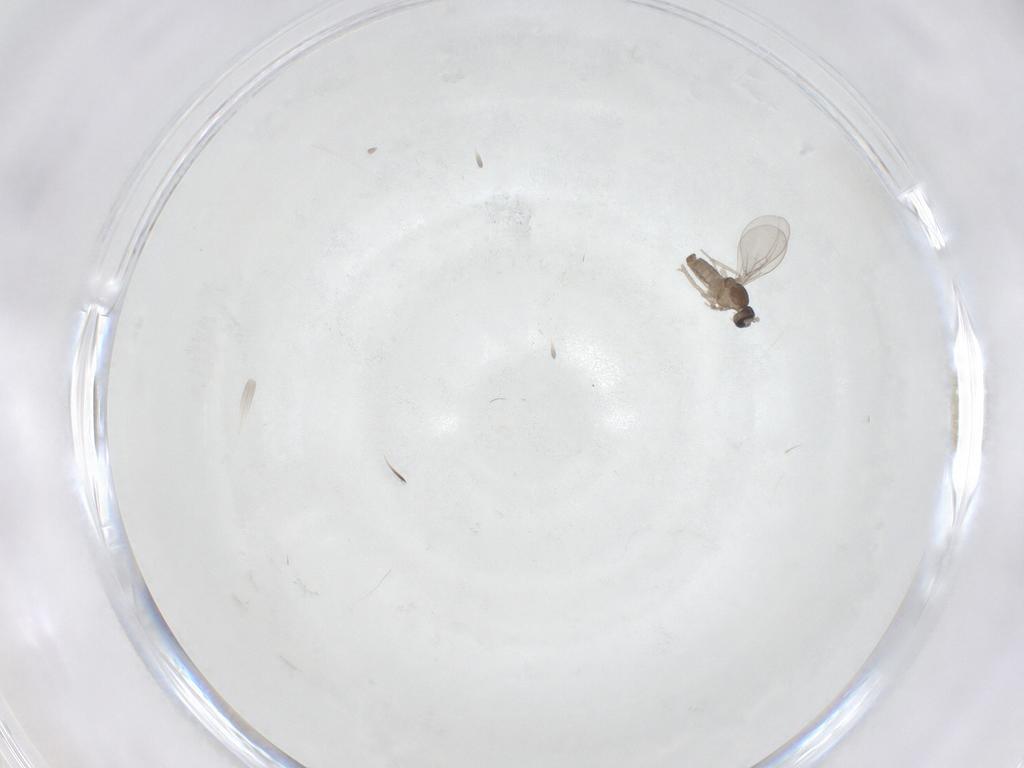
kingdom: Animalia
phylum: Arthropoda
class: Insecta
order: Diptera
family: Cecidomyiidae
